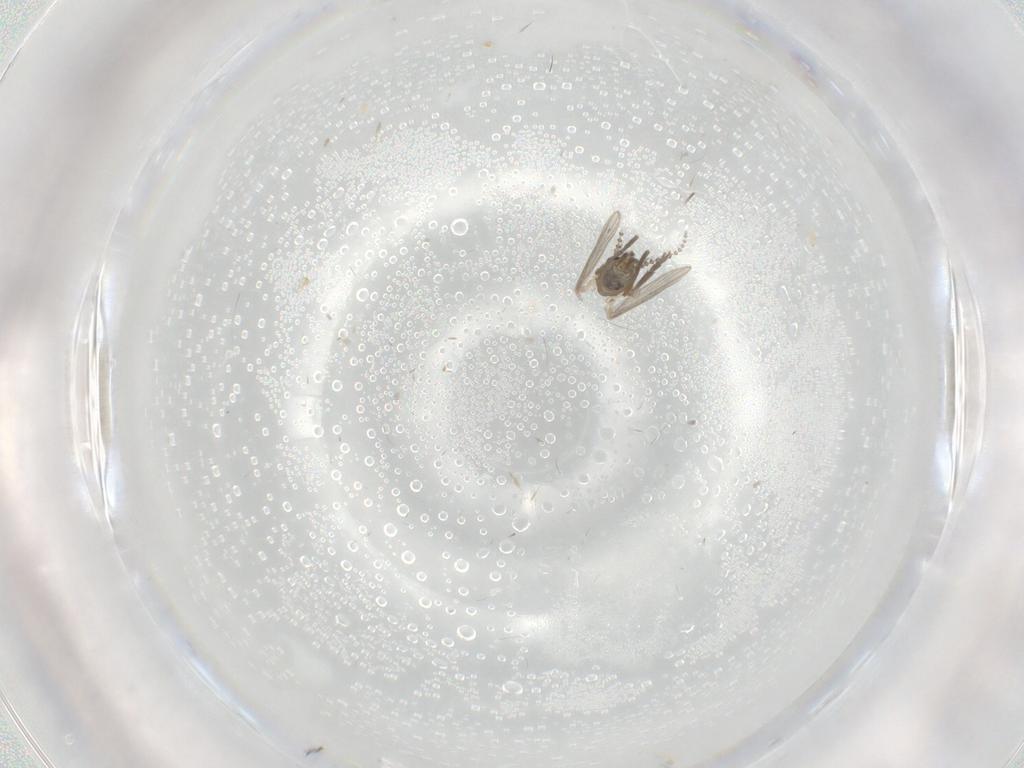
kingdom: Animalia
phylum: Arthropoda
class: Insecta
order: Diptera
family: Psychodidae
